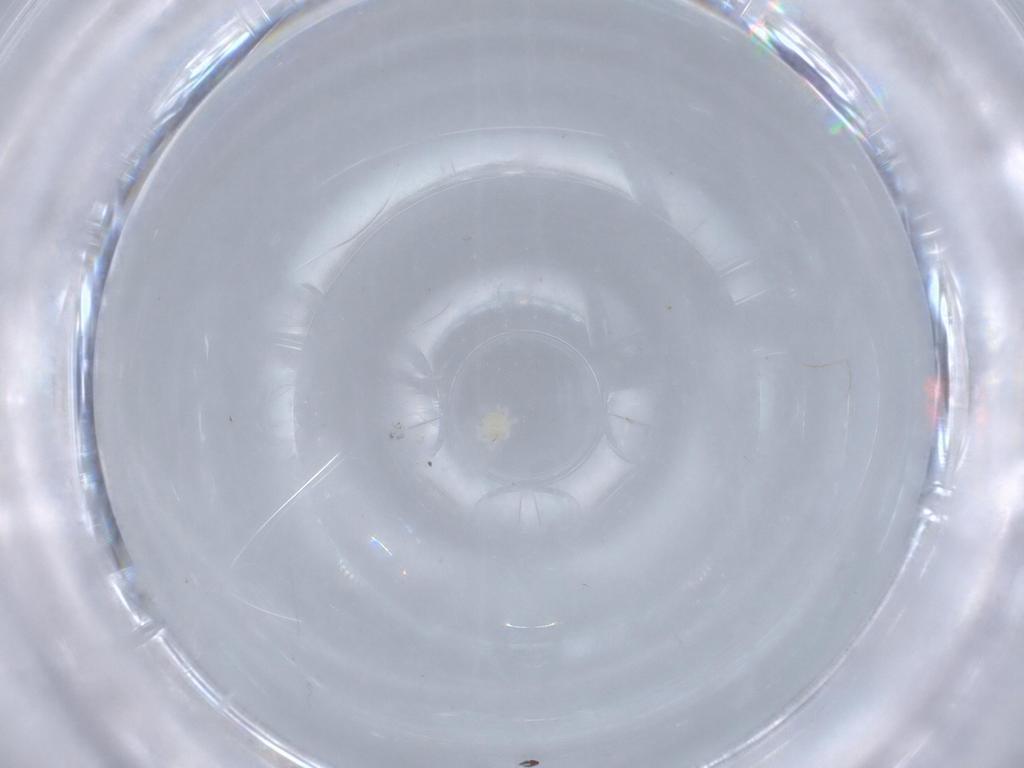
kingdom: Animalia
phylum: Arthropoda
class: Arachnida
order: Trombidiformes
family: Anystidae
